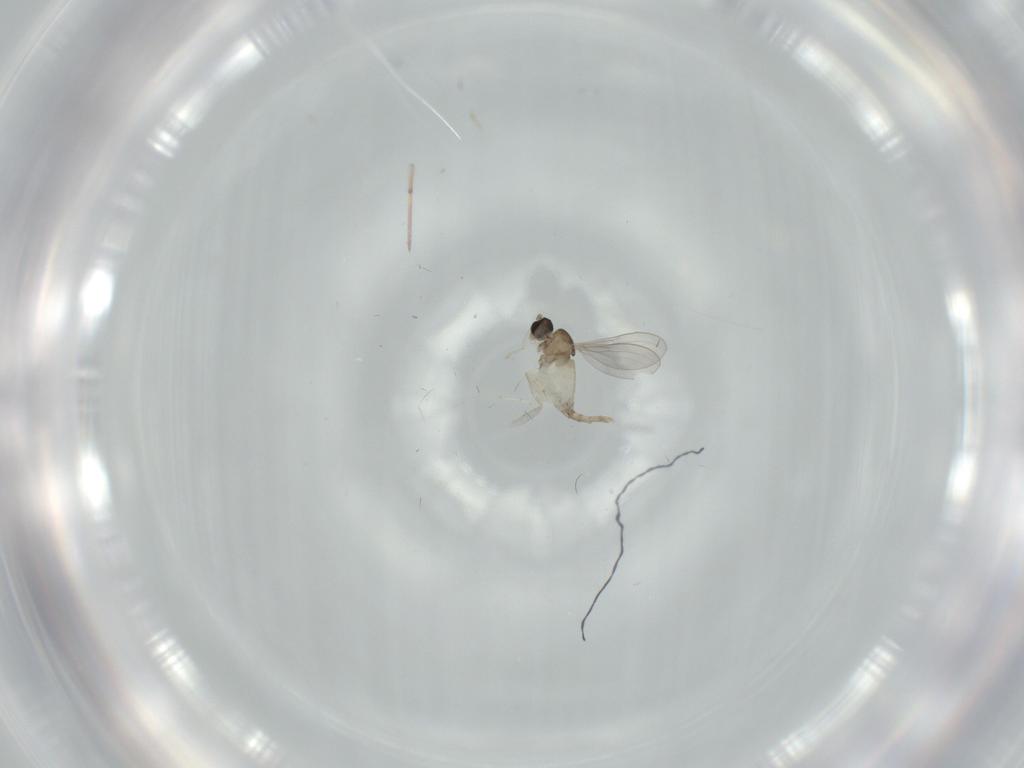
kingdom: Animalia
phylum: Arthropoda
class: Insecta
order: Diptera
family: Cecidomyiidae
